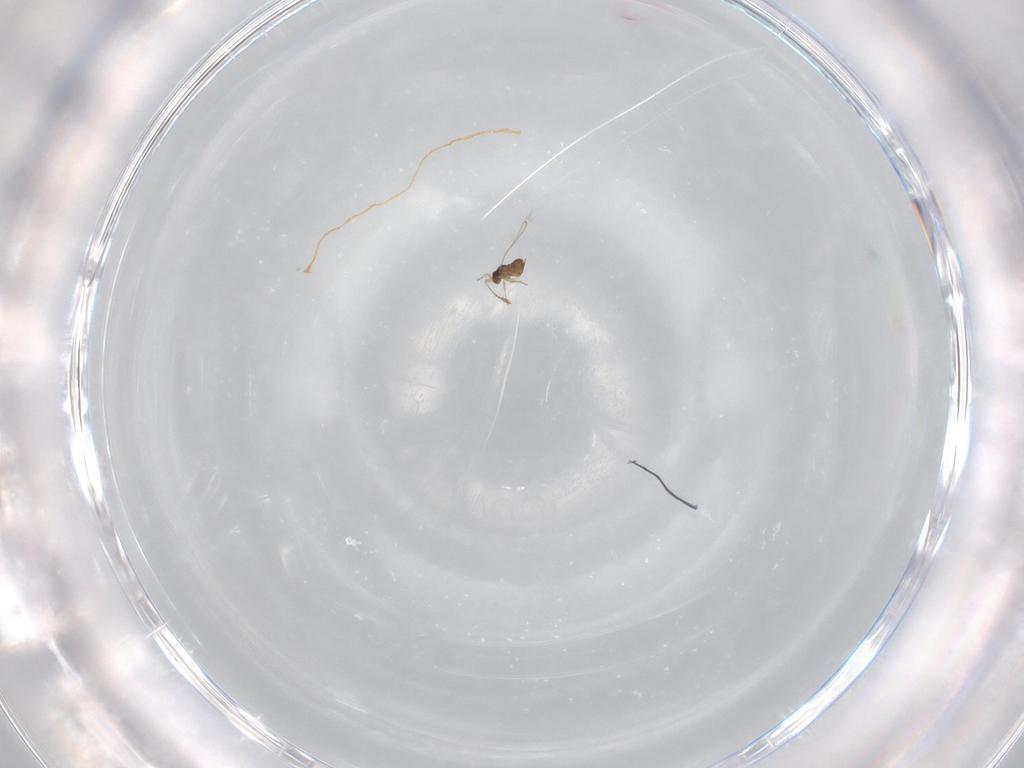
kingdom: Animalia
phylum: Arthropoda
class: Insecta
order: Hymenoptera
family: Mymaridae
